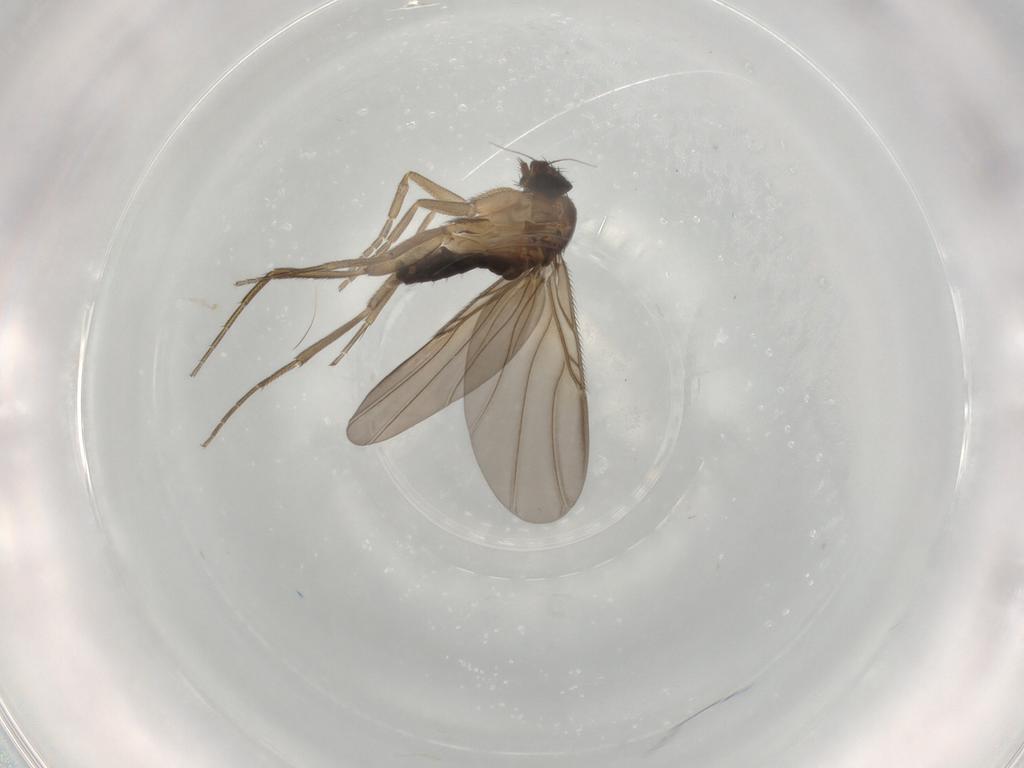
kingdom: Animalia
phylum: Arthropoda
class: Insecta
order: Diptera
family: Phoridae
